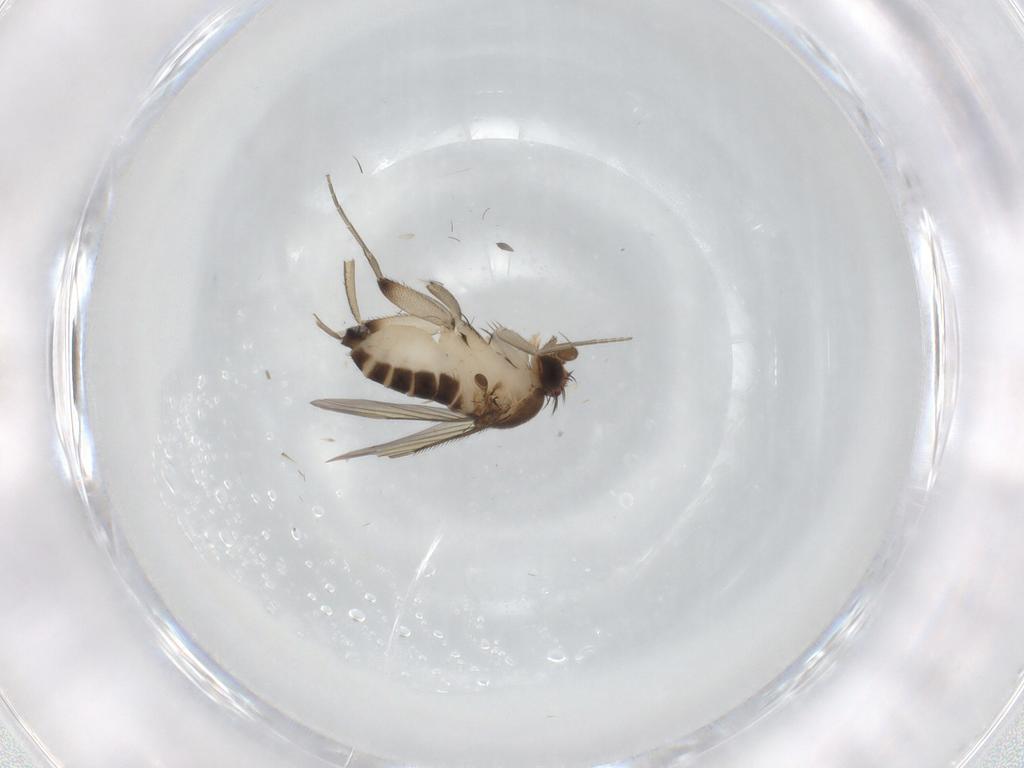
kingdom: Animalia
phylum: Arthropoda
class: Insecta
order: Diptera
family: Phoridae
